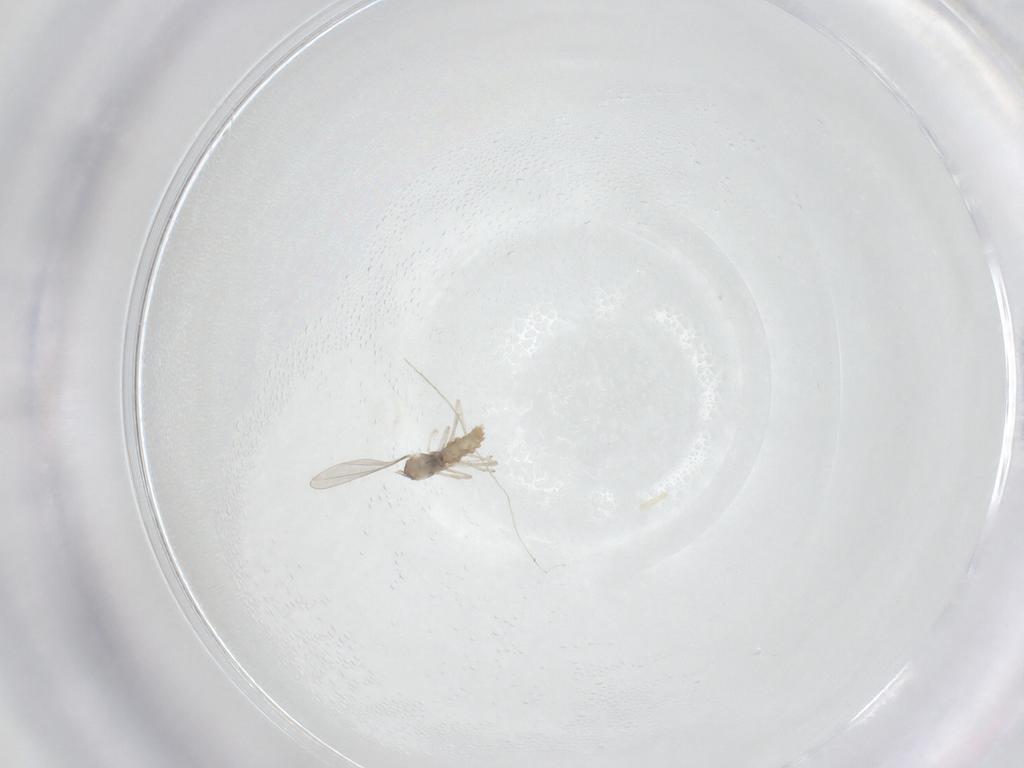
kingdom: Animalia
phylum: Arthropoda
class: Insecta
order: Diptera
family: Cecidomyiidae
